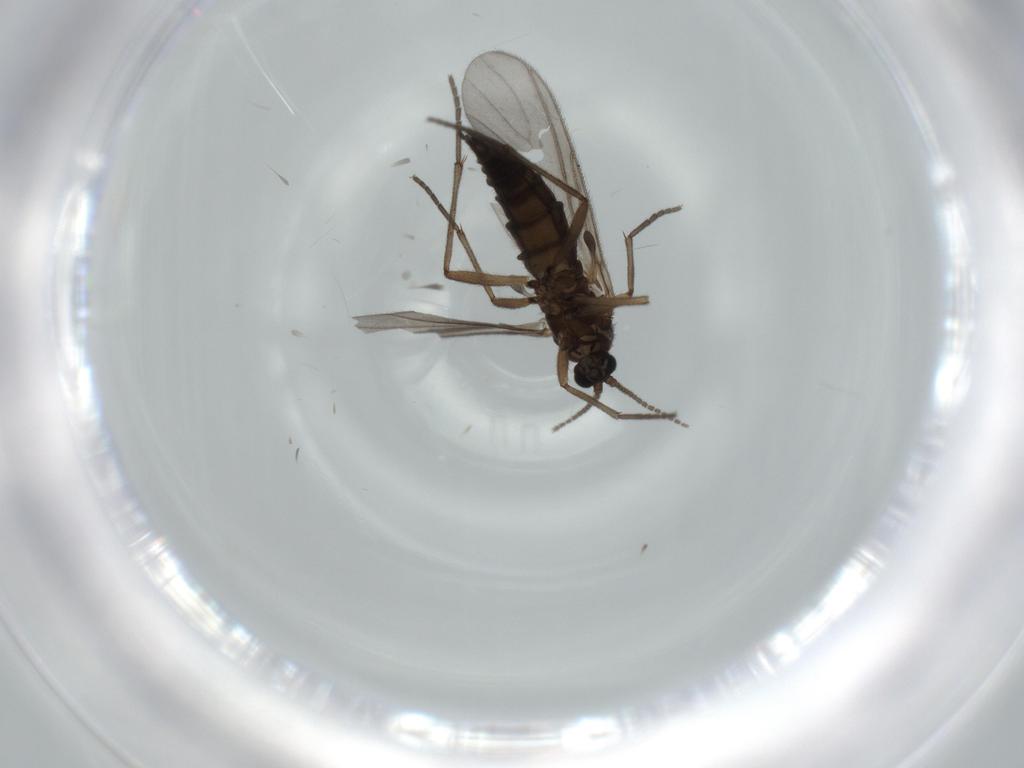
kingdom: Animalia
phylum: Arthropoda
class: Insecta
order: Diptera
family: Sciaridae
